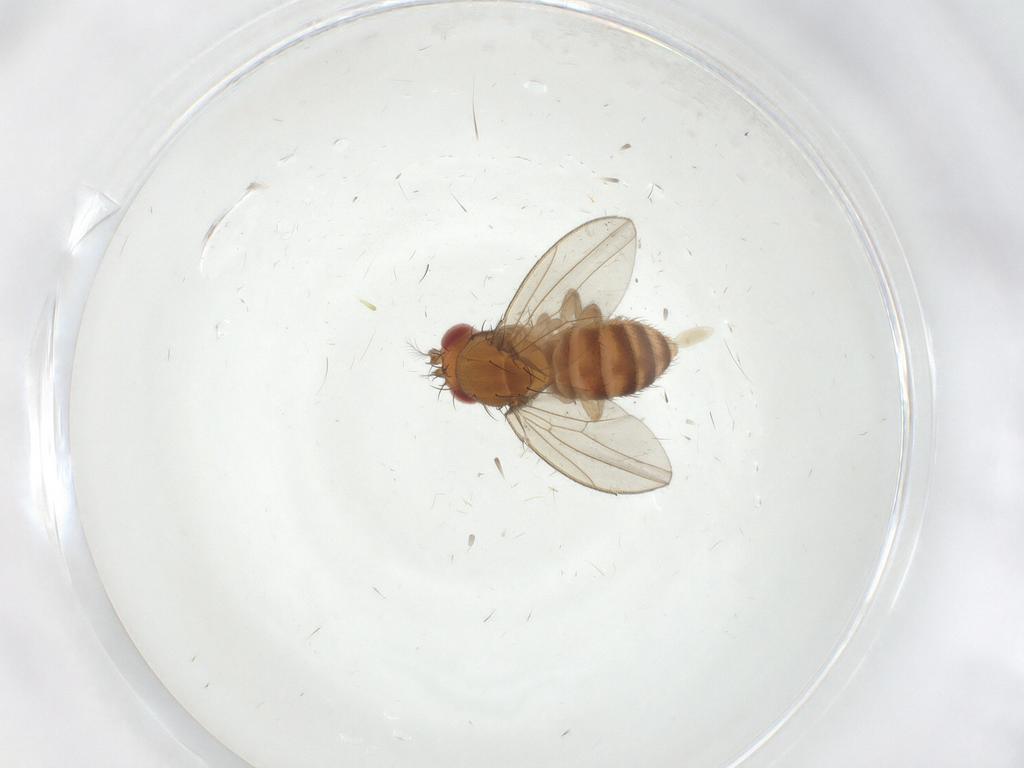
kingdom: Animalia
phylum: Arthropoda
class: Insecta
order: Diptera
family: Drosophilidae
